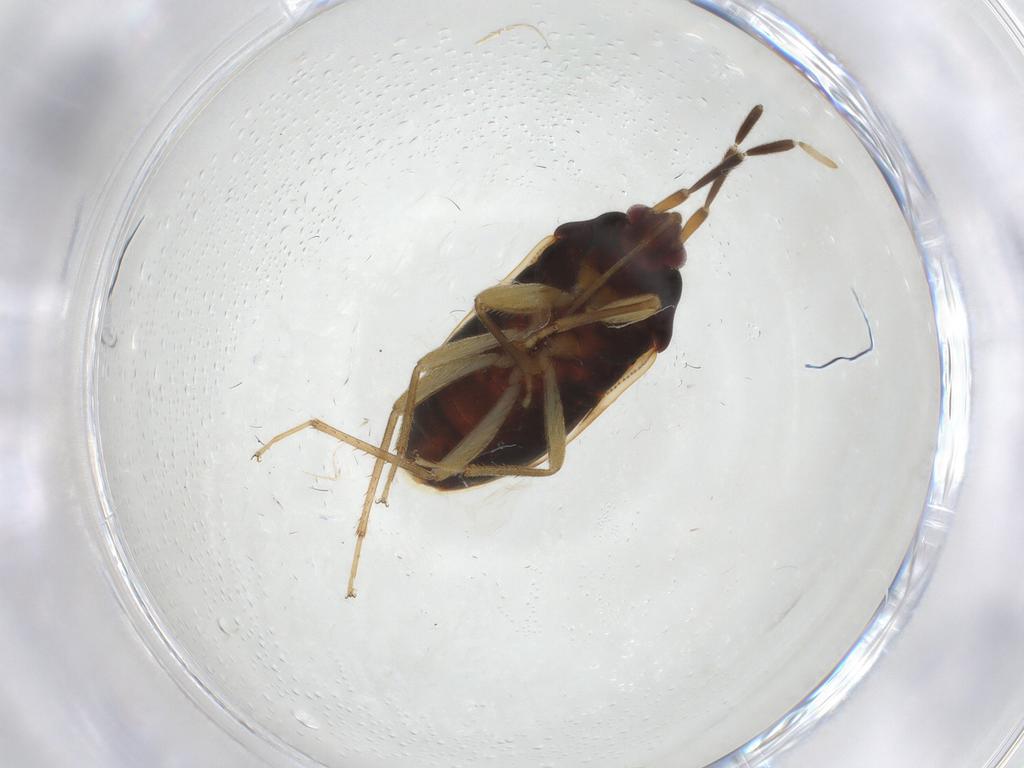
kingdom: Animalia
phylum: Arthropoda
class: Insecta
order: Hemiptera
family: Rhyparochromidae
